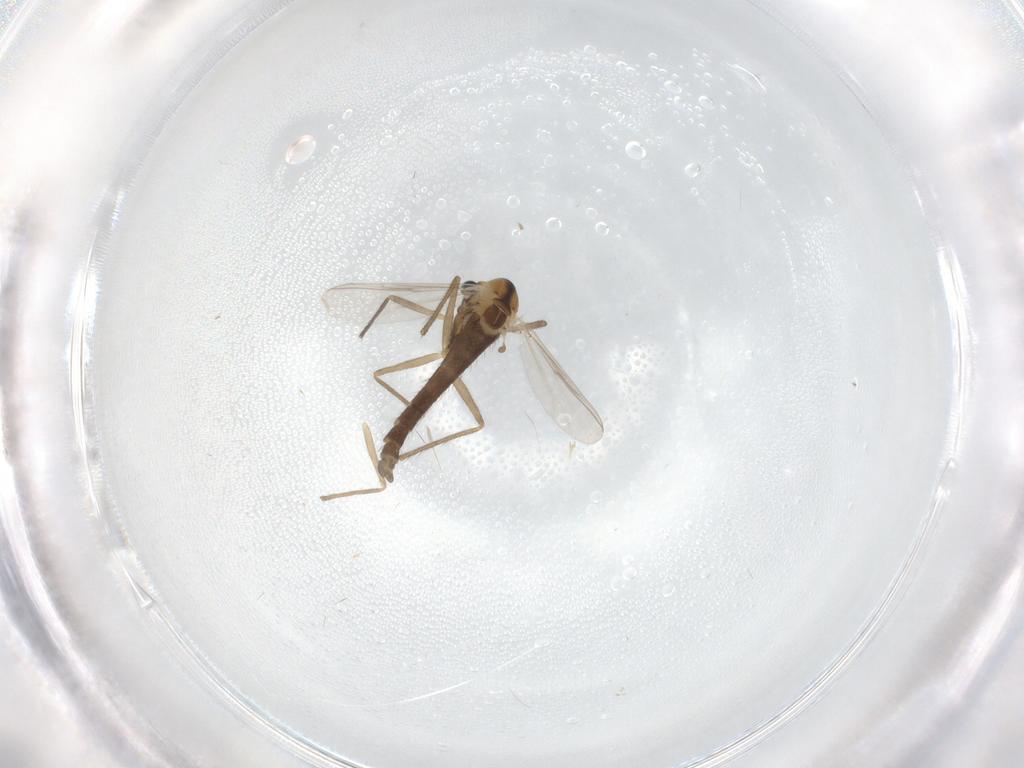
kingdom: Animalia
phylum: Arthropoda
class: Insecta
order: Diptera
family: Chironomidae
